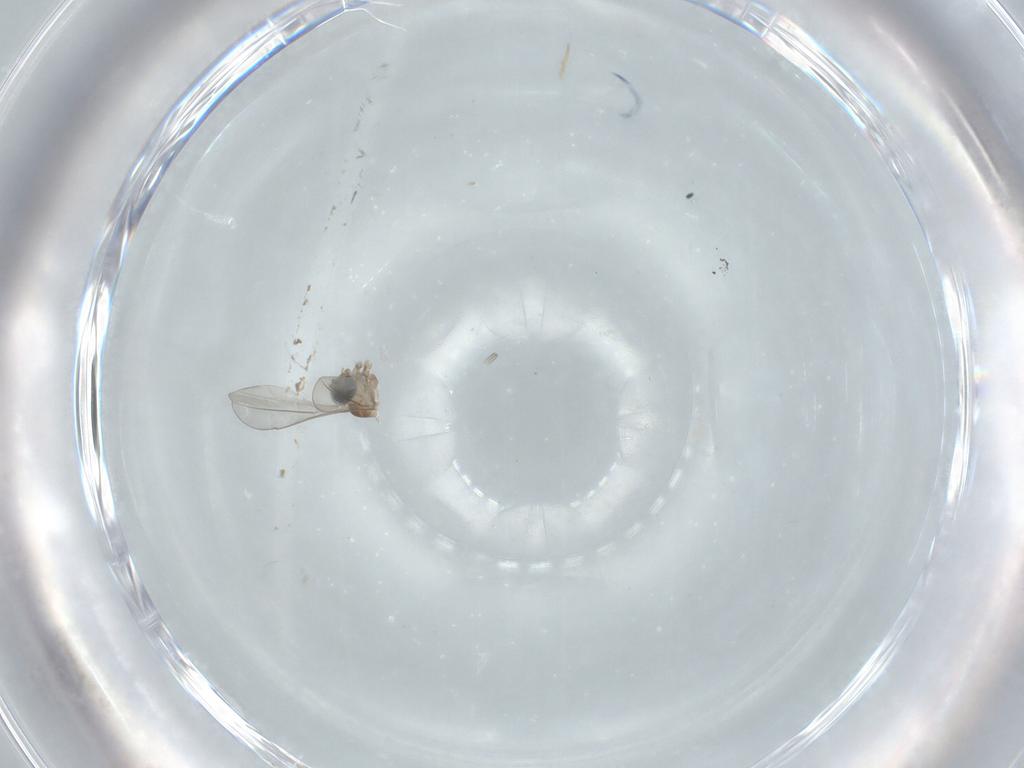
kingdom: Animalia
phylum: Arthropoda
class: Insecta
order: Diptera
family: Cecidomyiidae
